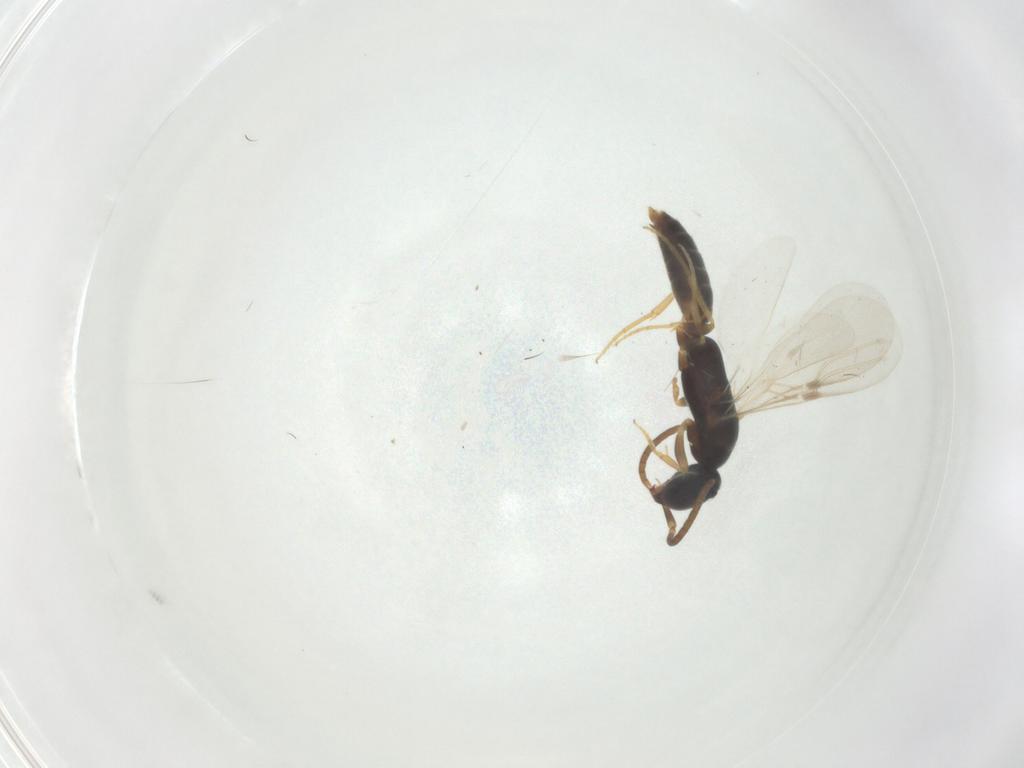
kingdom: Animalia
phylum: Arthropoda
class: Insecta
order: Hymenoptera
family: Bethylidae
